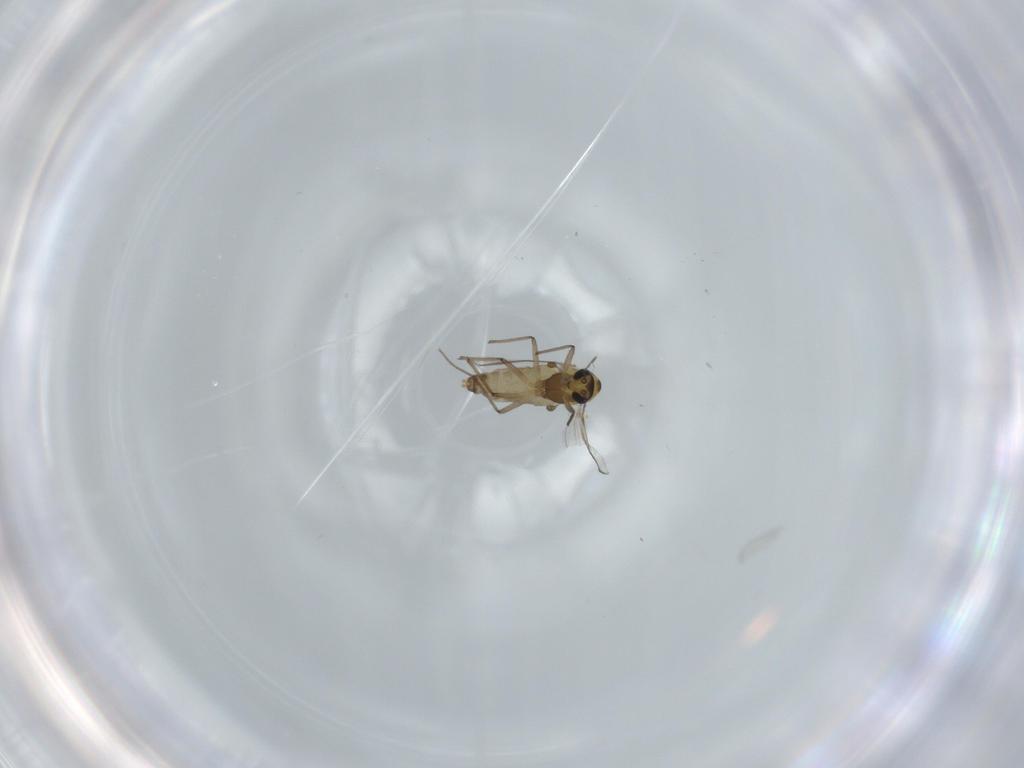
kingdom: Animalia
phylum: Arthropoda
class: Insecta
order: Diptera
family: Chironomidae
